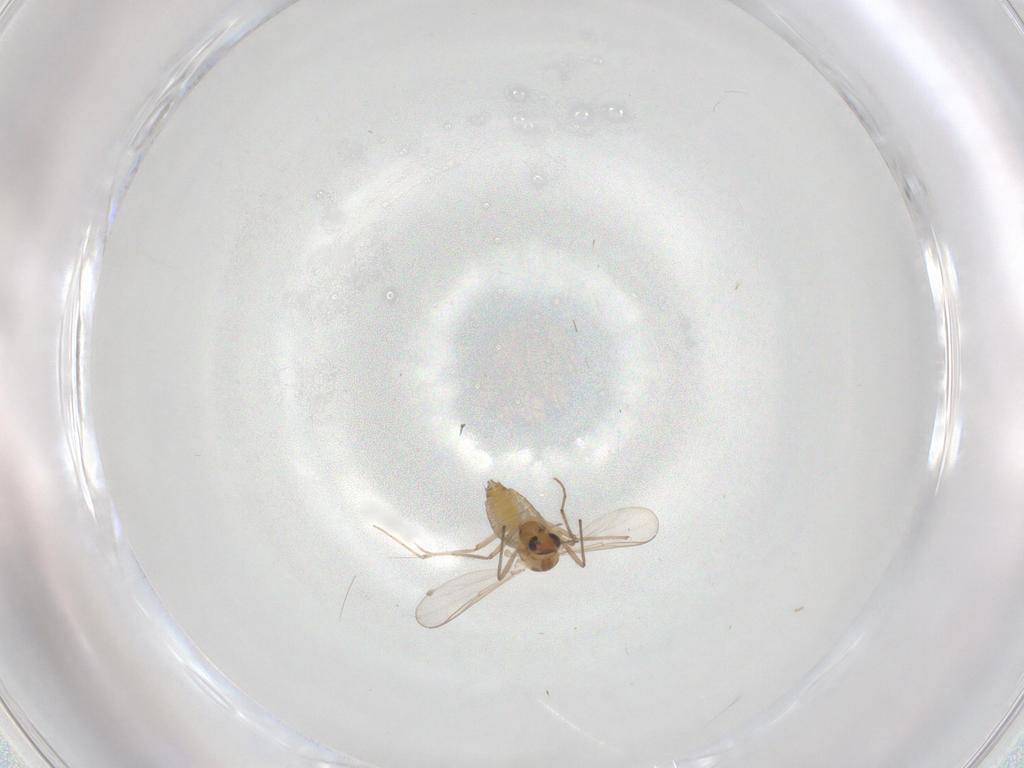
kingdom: Animalia
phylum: Arthropoda
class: Insecta
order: Diptera
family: Chironomidae
